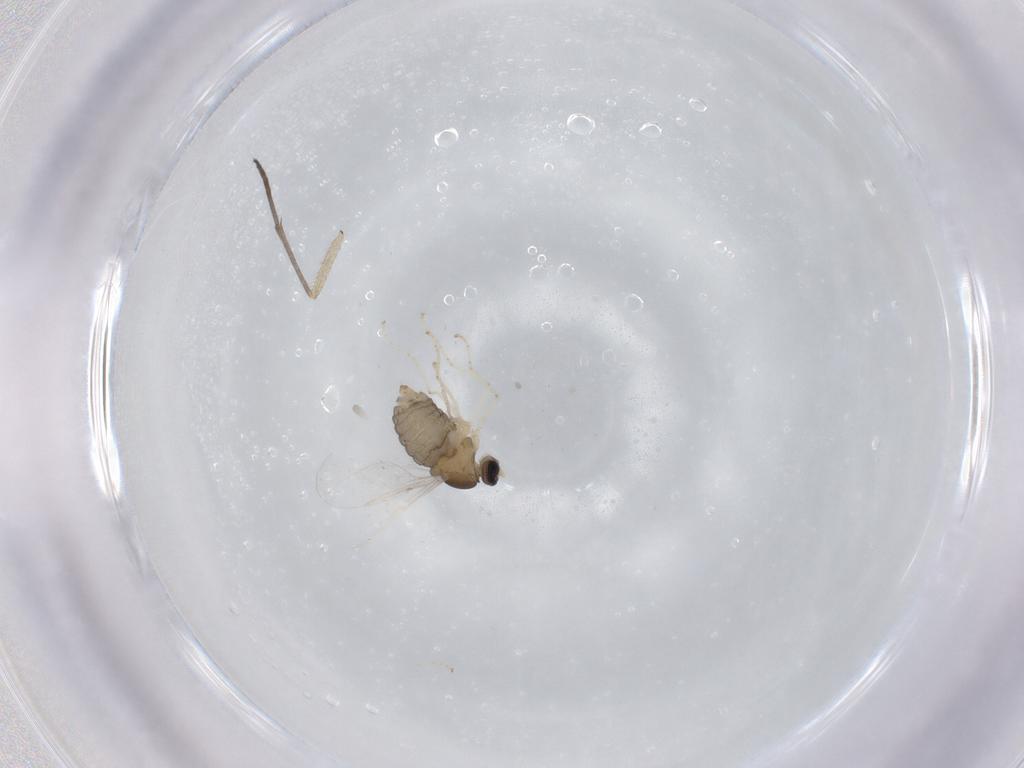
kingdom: Animalia
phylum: Arthropoda
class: Insecta
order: Diptera
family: Cecidomyiidae
